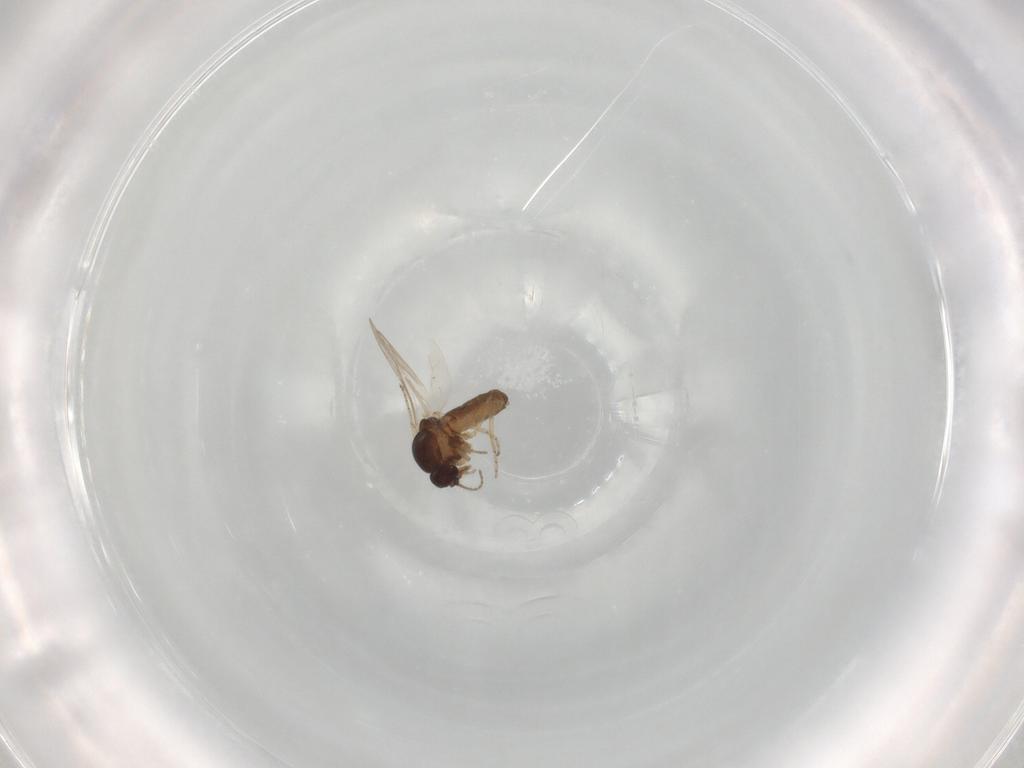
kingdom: Animalia
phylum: Arthropoda
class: Insecta
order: Diptera
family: Ceratopogonidae
